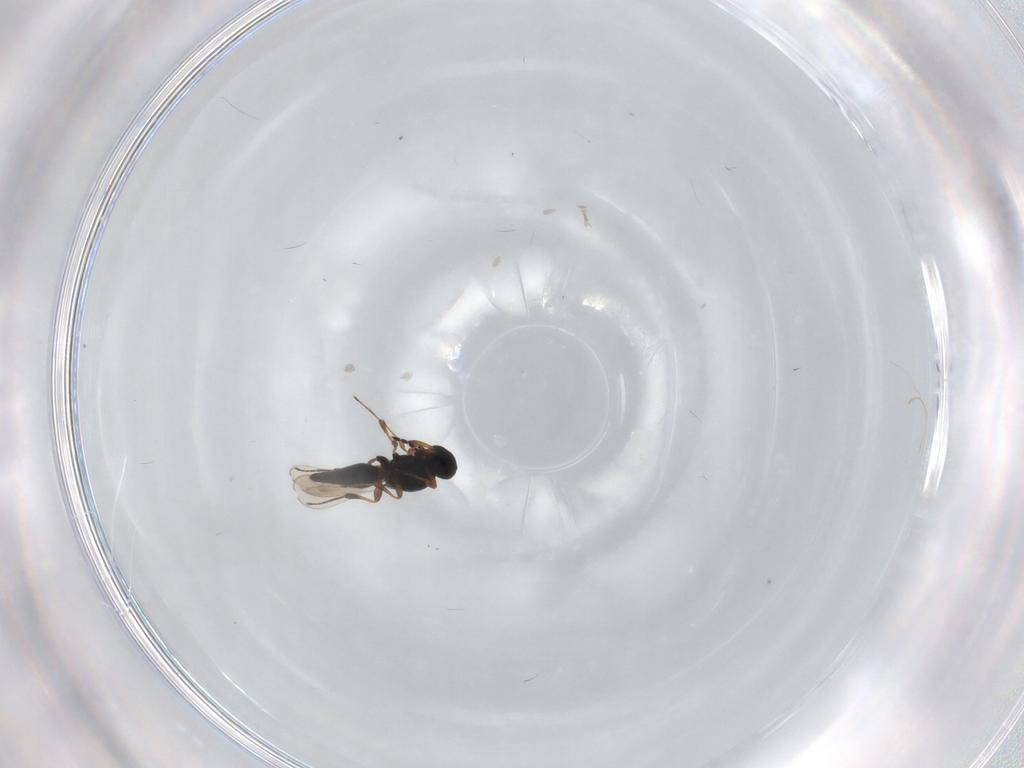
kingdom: Animalia
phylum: Arthropoda
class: Insecta
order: Hymenoptera
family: Platygastridae
